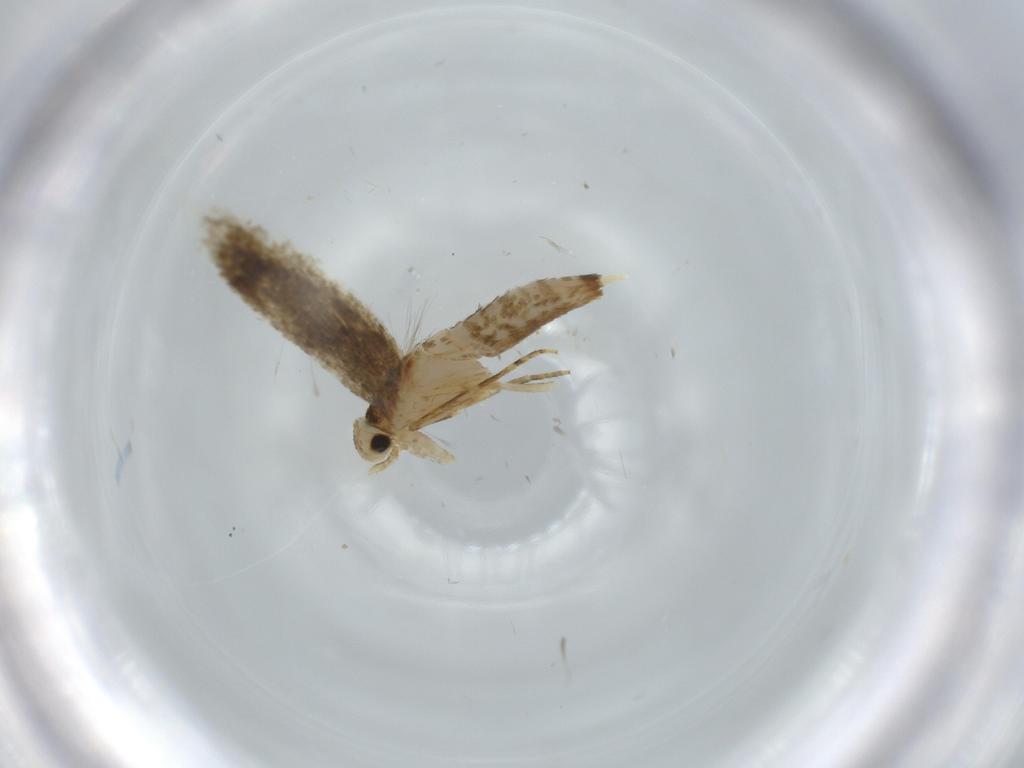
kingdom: Animalia
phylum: Arthropoda
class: Insecta
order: Lepidoptera
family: Tineidae
